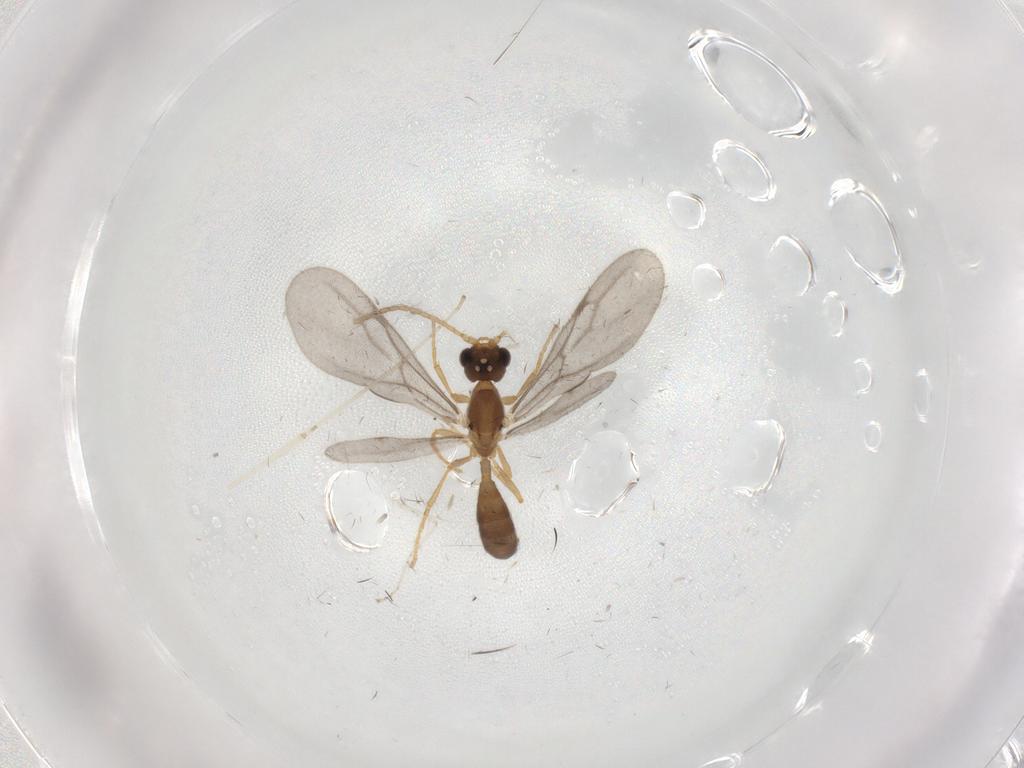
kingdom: Animalia
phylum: Arthropoda
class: Insecta
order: Hymenoptera
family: Formicidae
